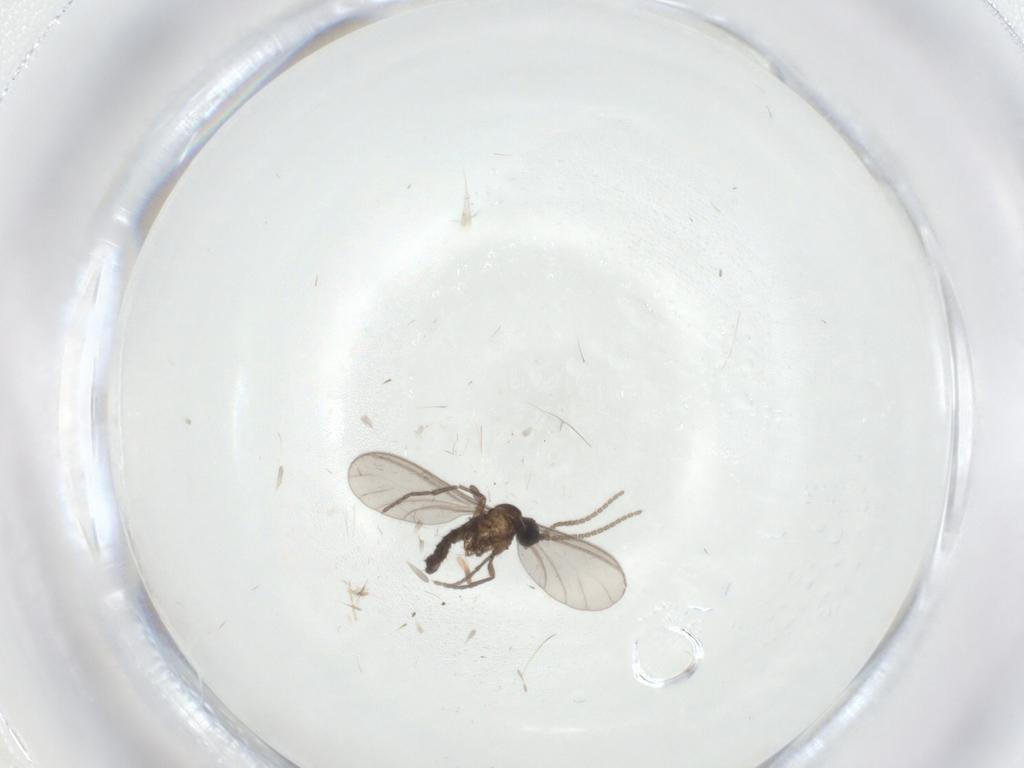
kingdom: Animalia
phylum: Arthropoda
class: Insecta
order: Diptera
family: Sciaridae
